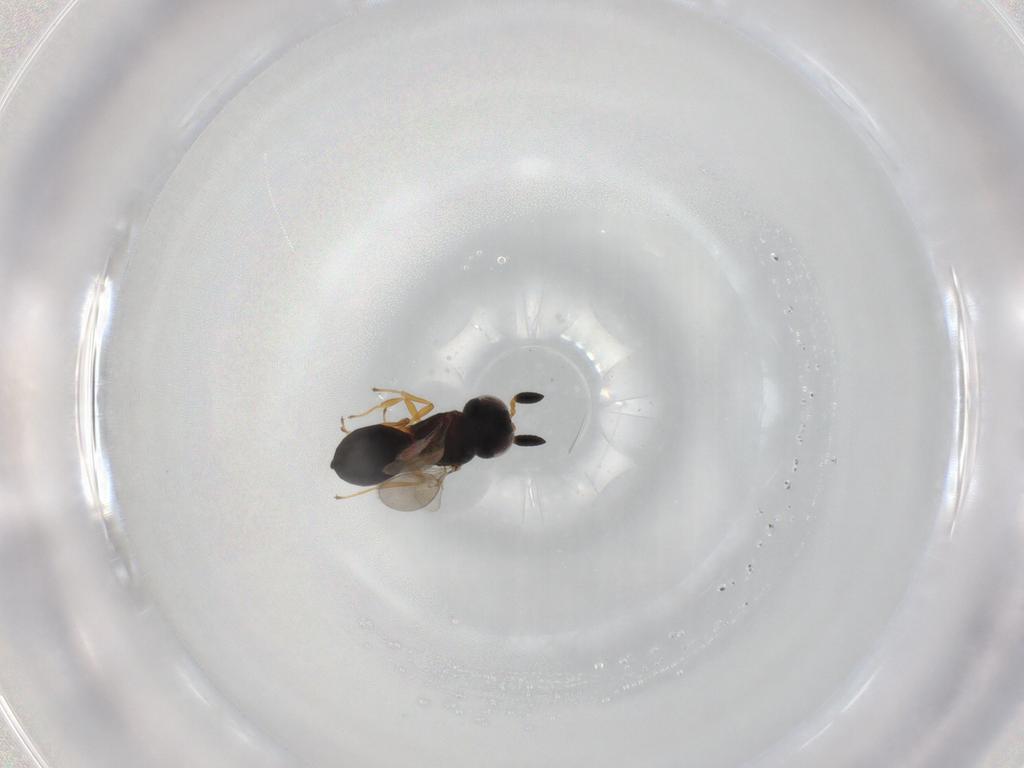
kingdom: Animalia
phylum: Arthropoda
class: Insecta
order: Hymenoptera
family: Scelionidae
